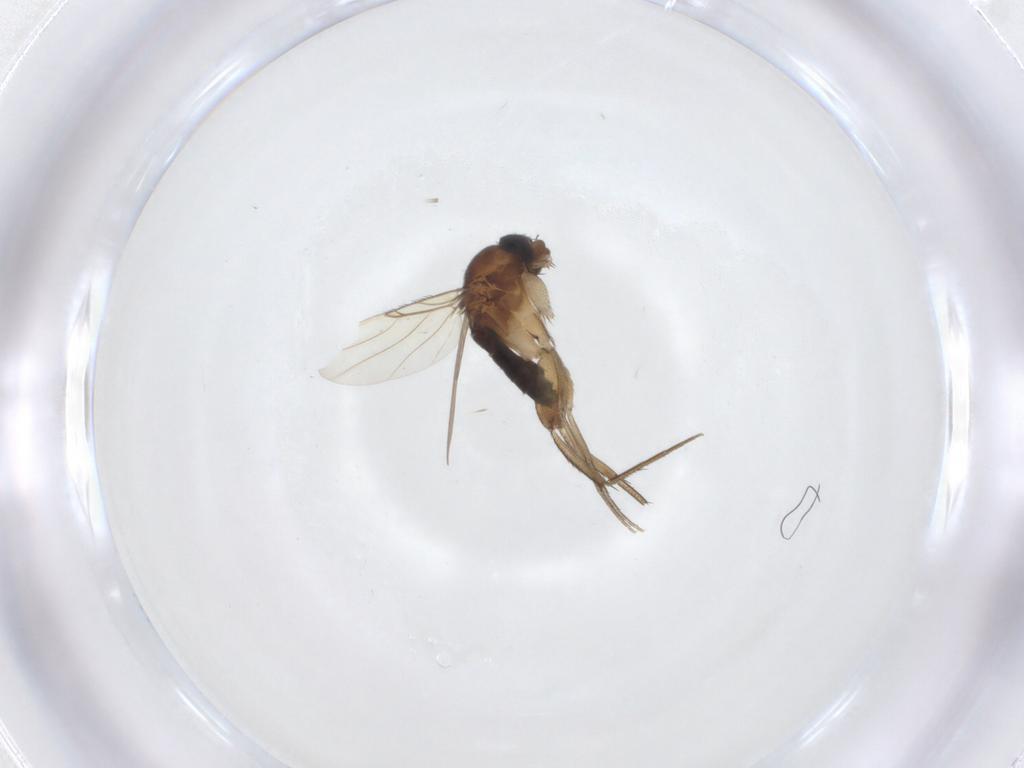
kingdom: Animalia
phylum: Arthropoda
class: Insecta
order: Diptera
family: Phoridae
